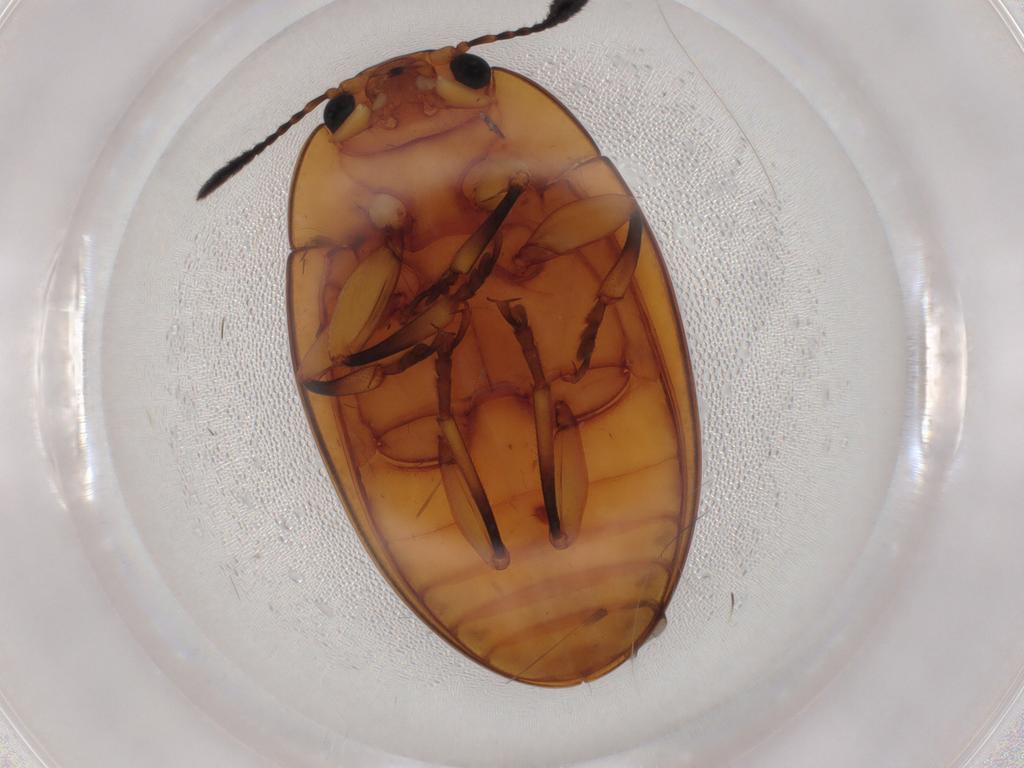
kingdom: Animalia
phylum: Arthropoda
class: Insecta
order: Coleoptera
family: Erotylidae
